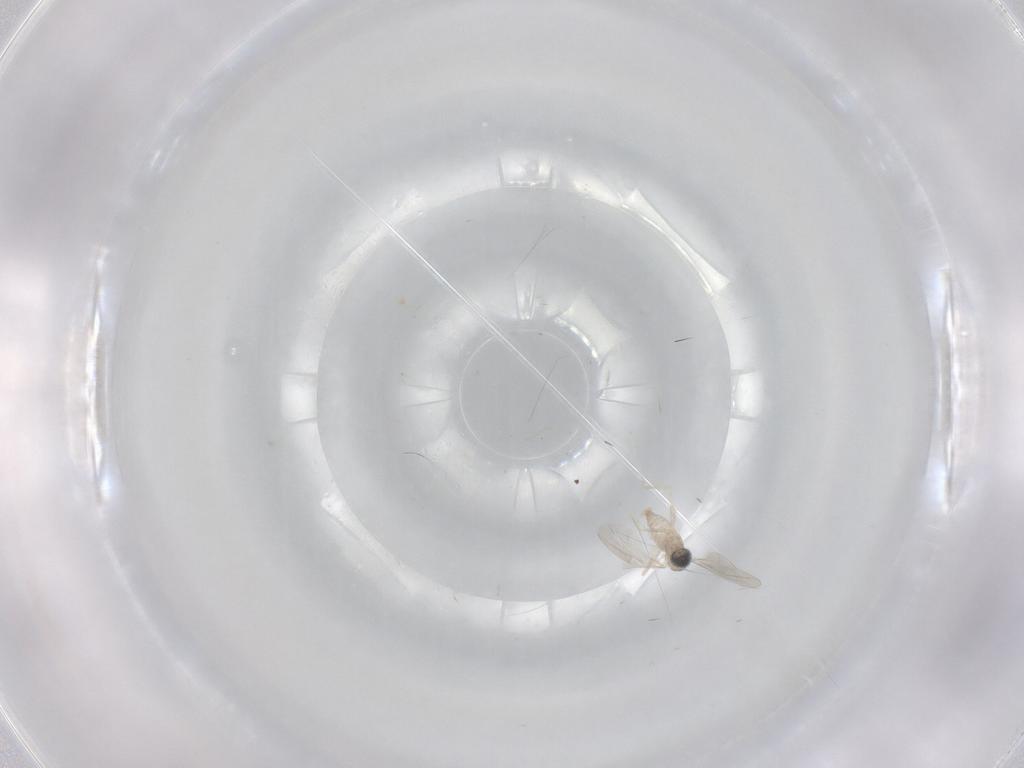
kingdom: Animalia
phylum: Arthropoda
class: Insecta
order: Diptera
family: Cecidomyiidae
